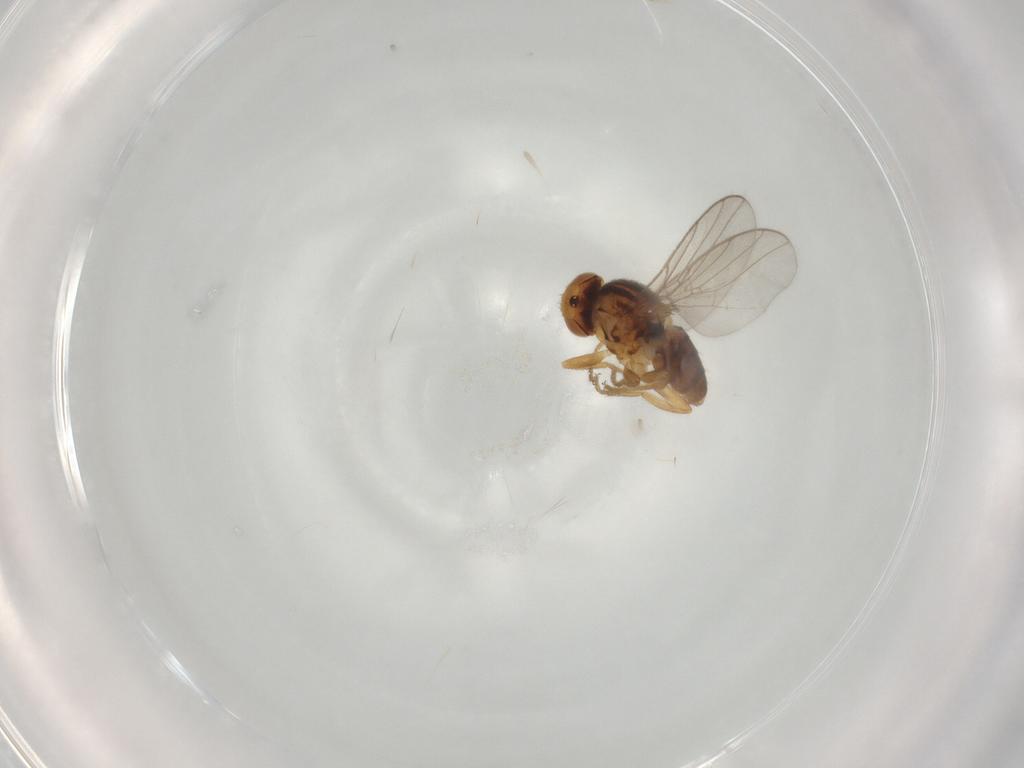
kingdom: Animalia
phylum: Arthropoda
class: Insecta
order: Diptera
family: Chloropidae
